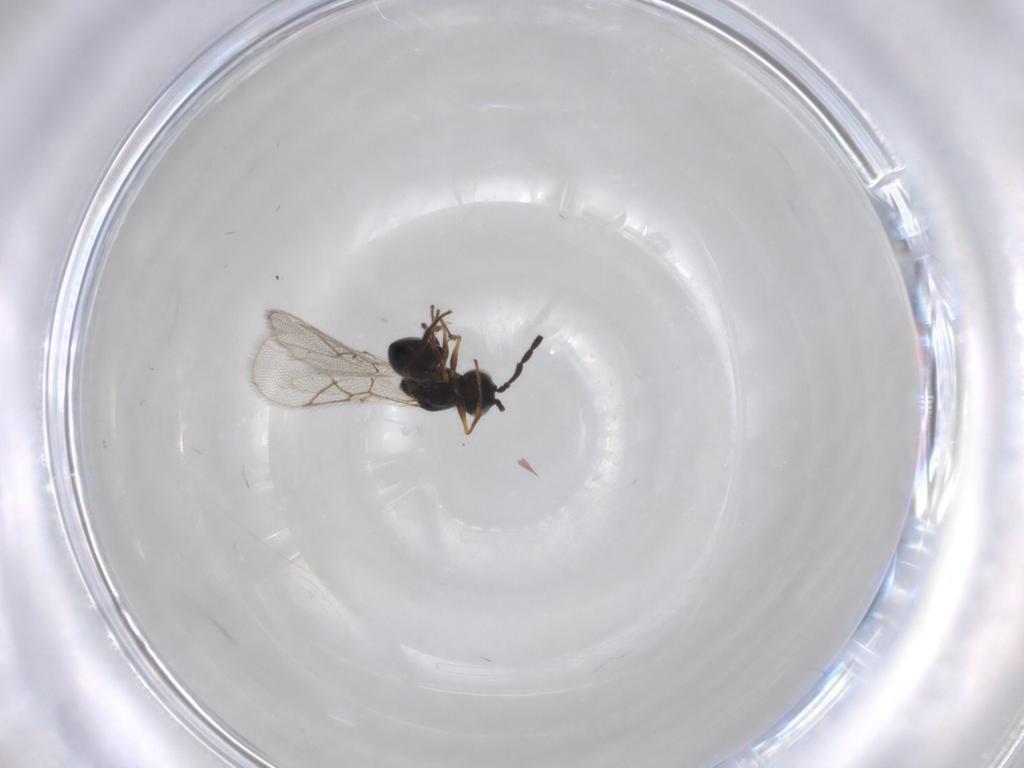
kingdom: Animalia
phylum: Arthropoda
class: Insecta
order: Hymenoptera
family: Figitidae
